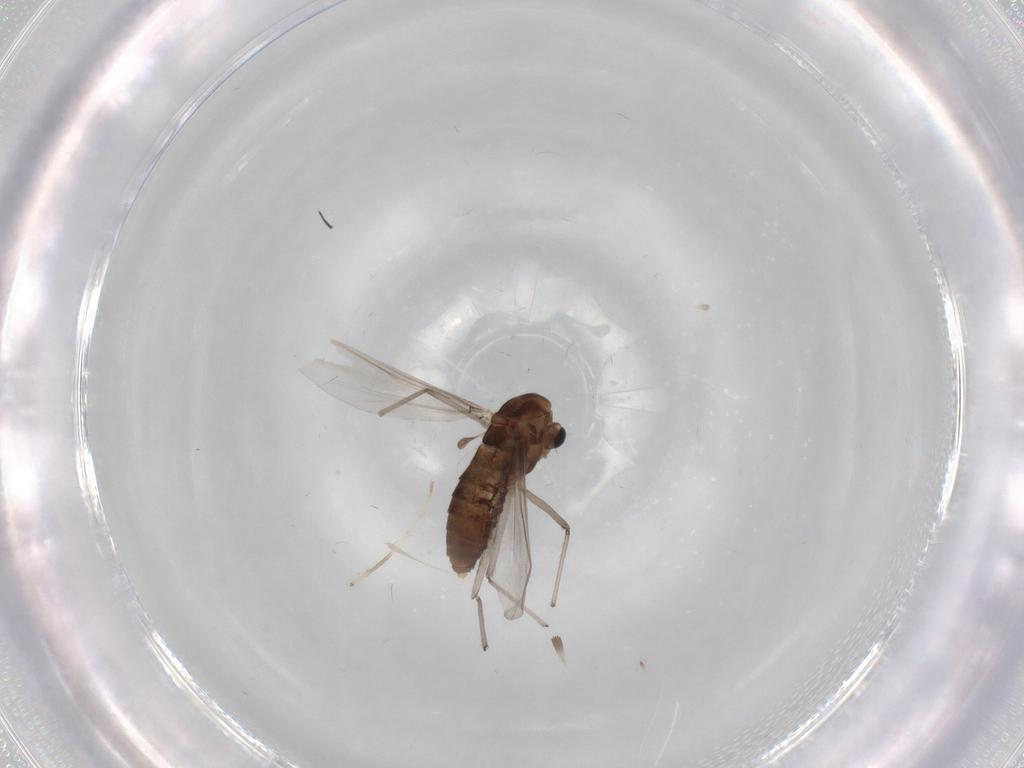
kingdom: Animalia
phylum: Arthropoda
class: Insecta
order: Diptera
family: Chironomidae
